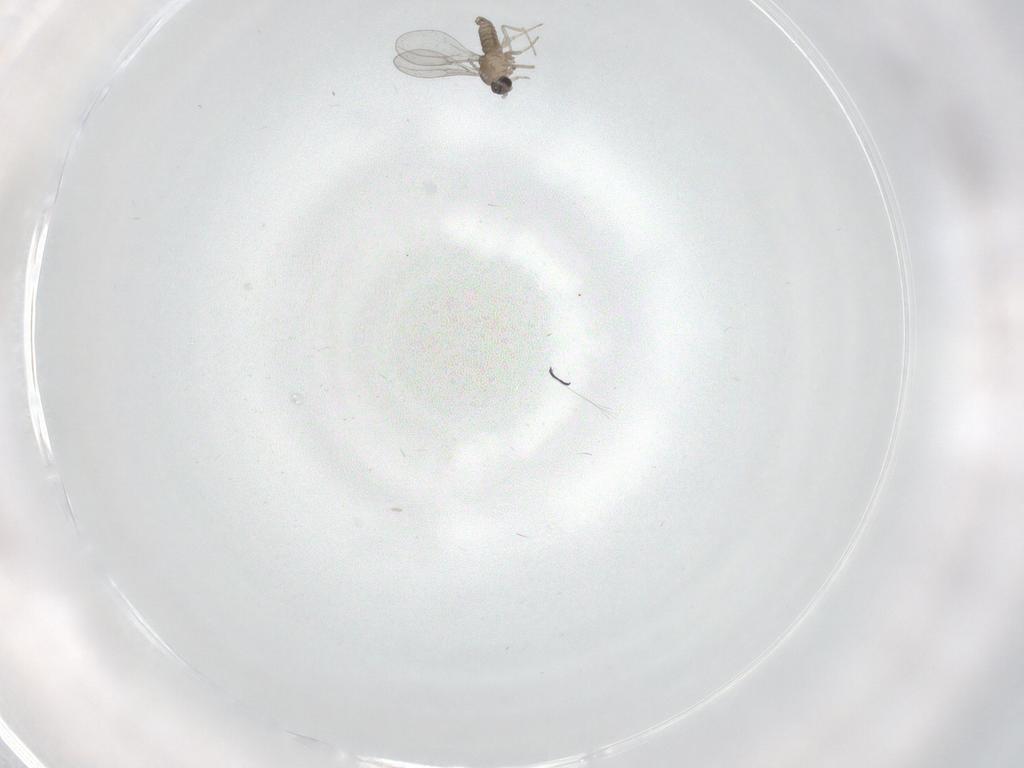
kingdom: Animalia
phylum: Arthropoda
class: Insecta
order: Diptera
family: Cecidomyiidae
